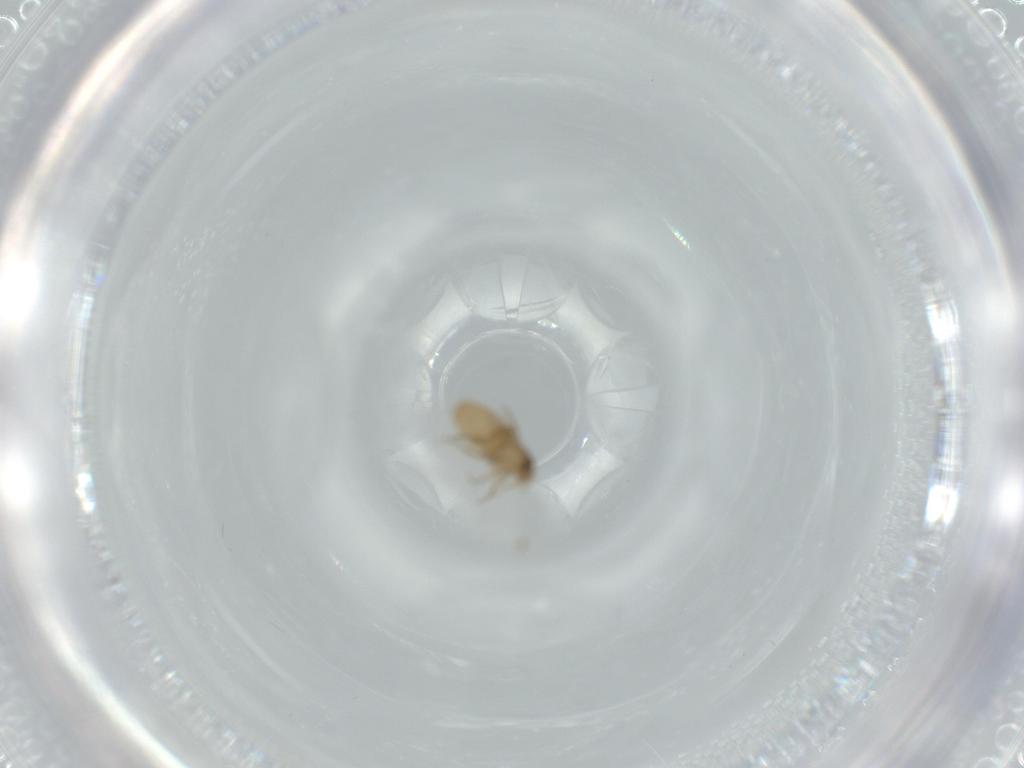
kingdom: Animalia
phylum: Arthropoda
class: Insecta
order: Diptera
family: Phoridae
